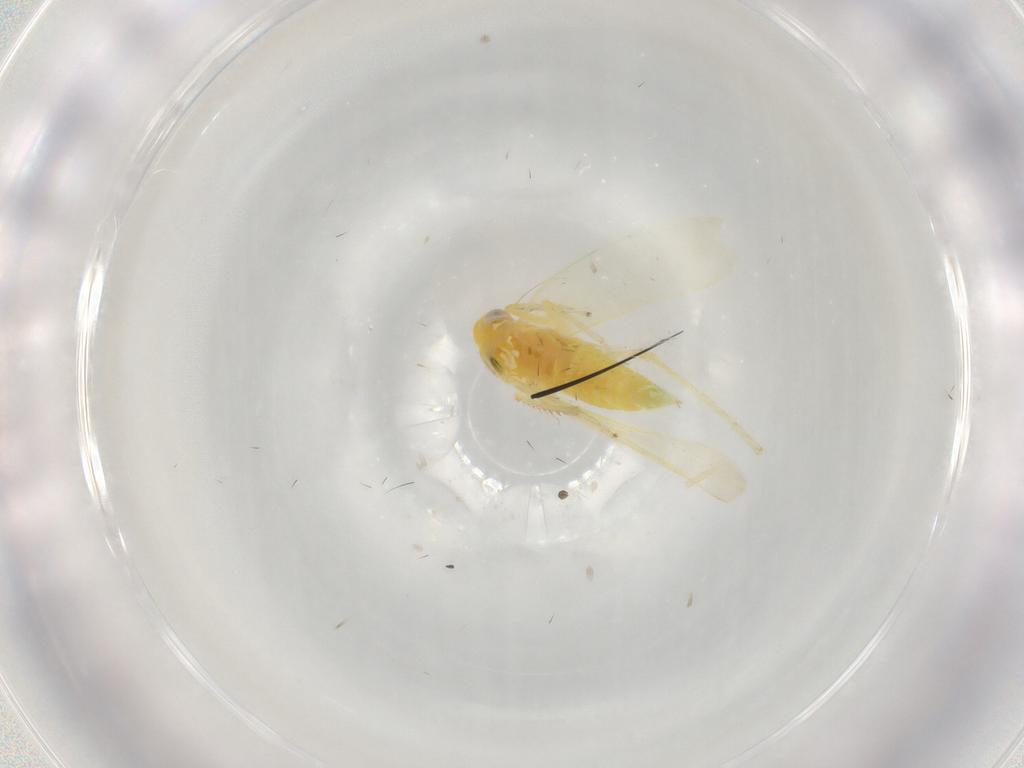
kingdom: Animalia
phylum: Arthropoda
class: Insecta
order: Hemiptera
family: Cicadellidae
